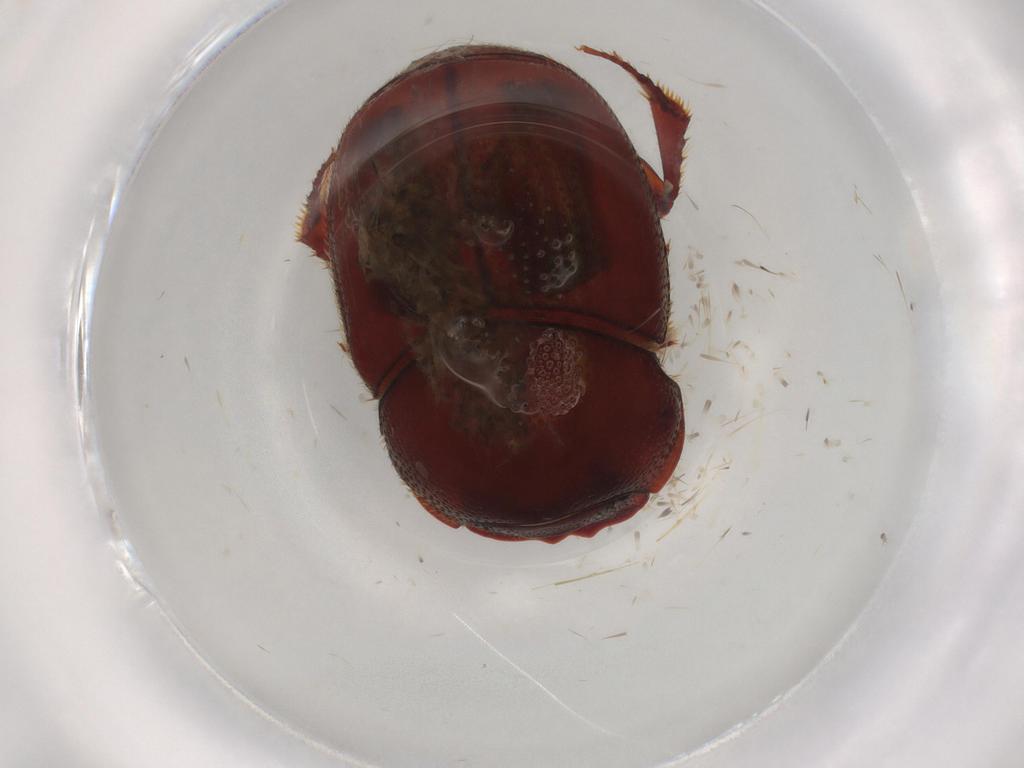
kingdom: Animalia
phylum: Arthropoda
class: Insecta
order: Coleoptera
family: Scarabaeidae
